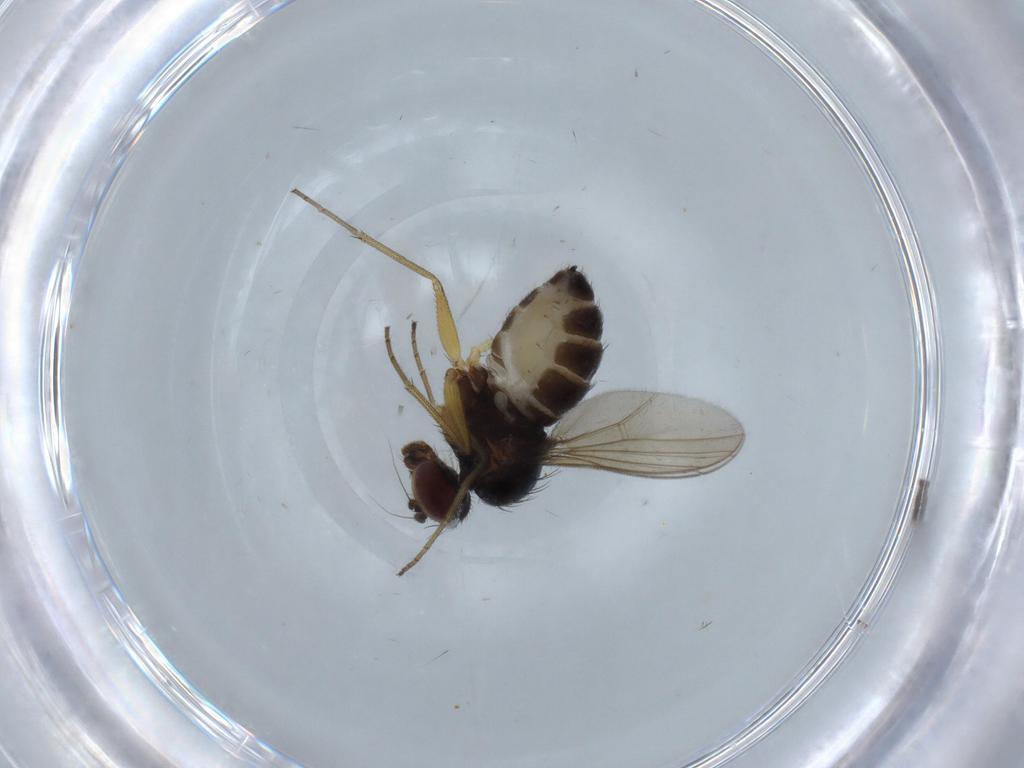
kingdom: Animalia
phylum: Arthropoda
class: Insecta
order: Diptera
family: Dolichopodidae
